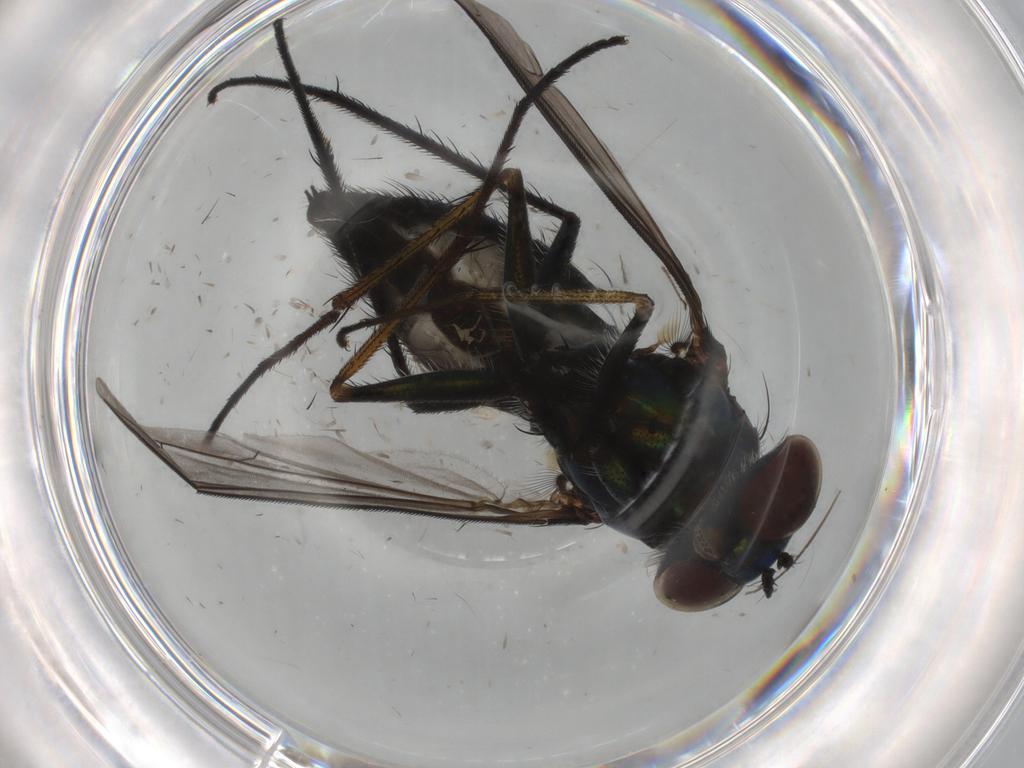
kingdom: Animalia
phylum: Arthropoda
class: Insecta
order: Diptera
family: Dolichopodidae
